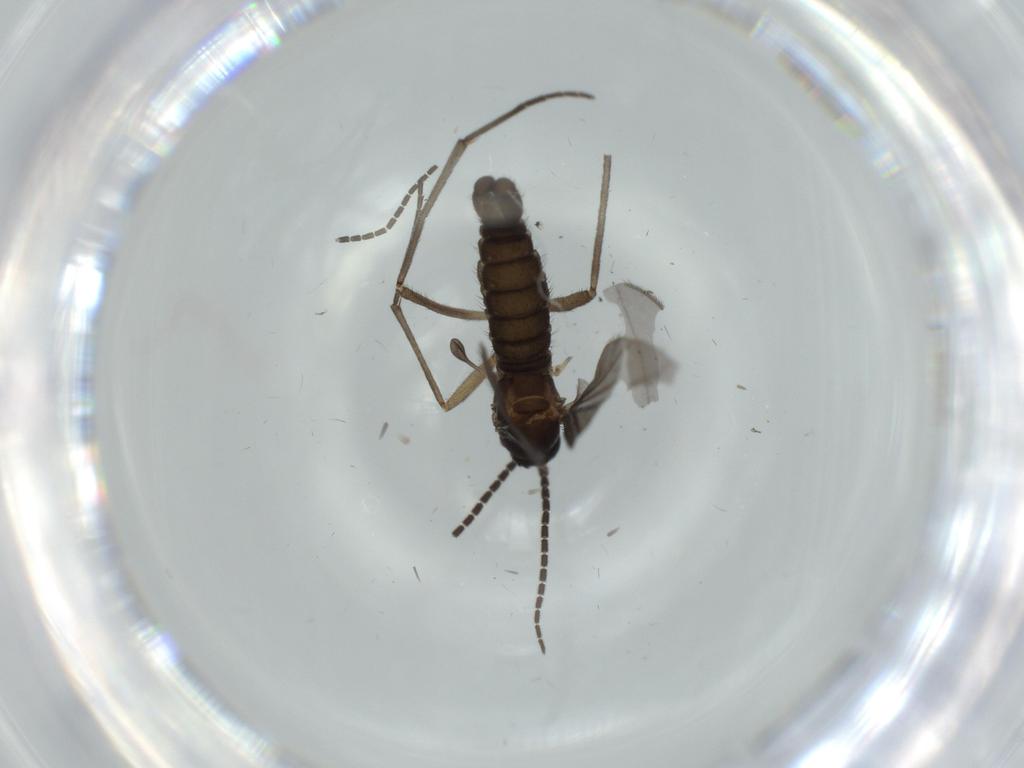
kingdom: Animalia
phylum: Arthropoda
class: Insecta
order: Diptera
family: Sciaridae
